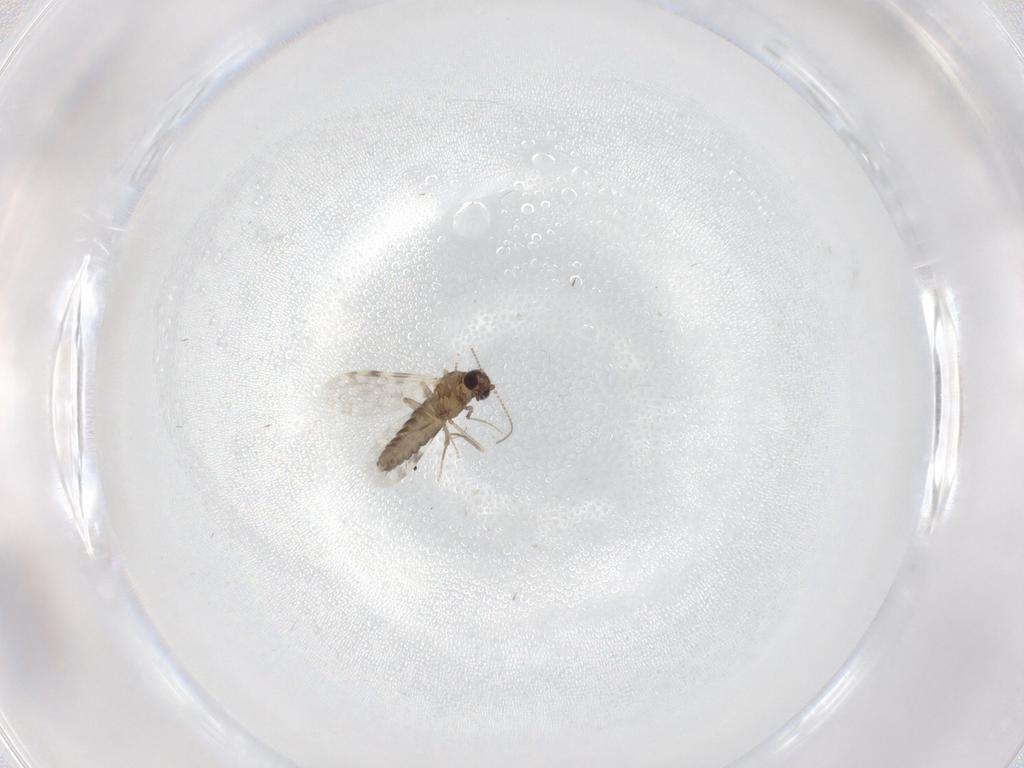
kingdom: Animalia
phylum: Arthropoda
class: Insecta
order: Diptera
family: Ceratopogonidae
